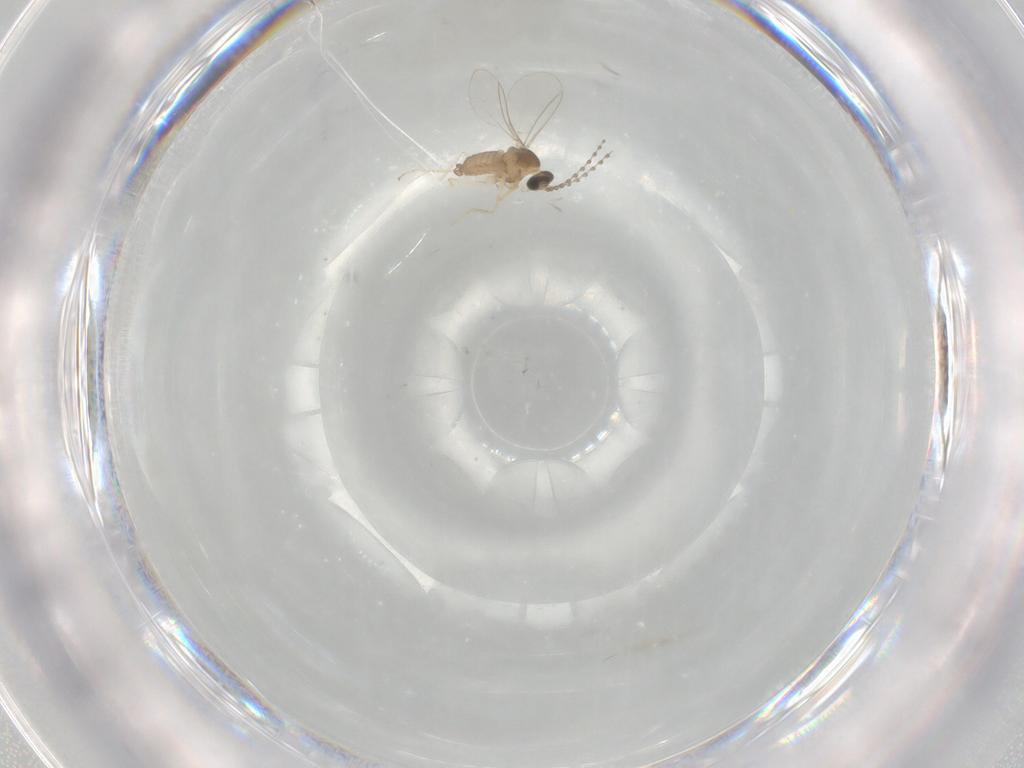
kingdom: Animalia
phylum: Arthropoda
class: Insecta
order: Diptera
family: Cecidomyiidae
